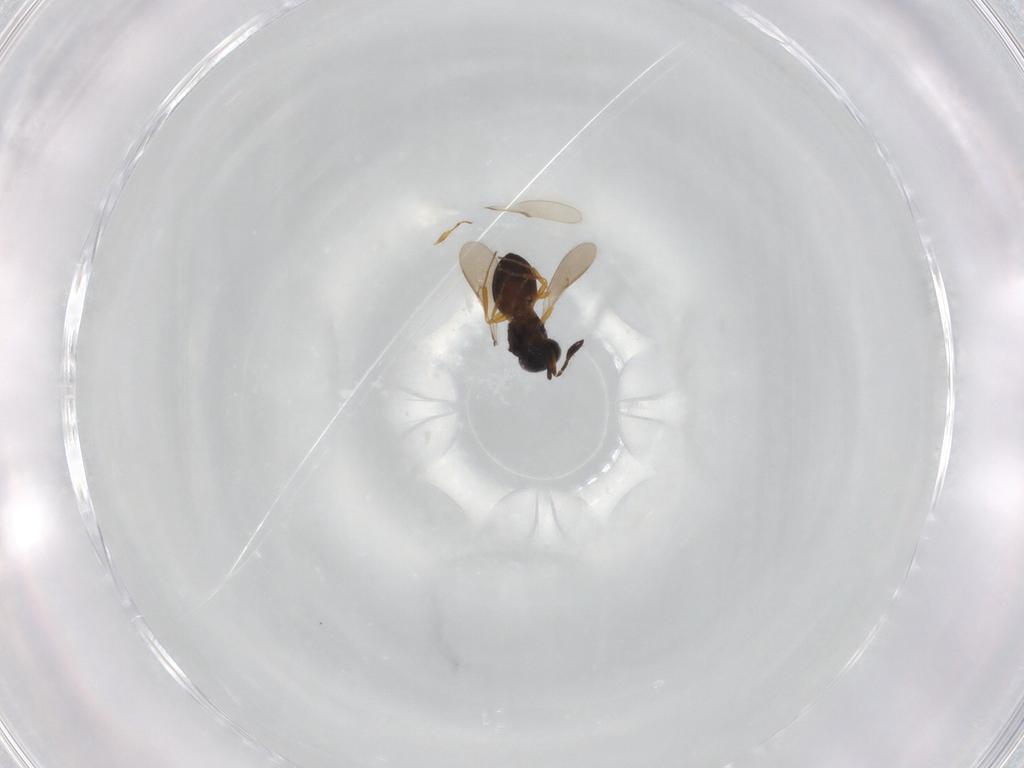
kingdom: Animalia
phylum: Arthropoda
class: Insecta
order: Hymenoptera
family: Scelionidae
